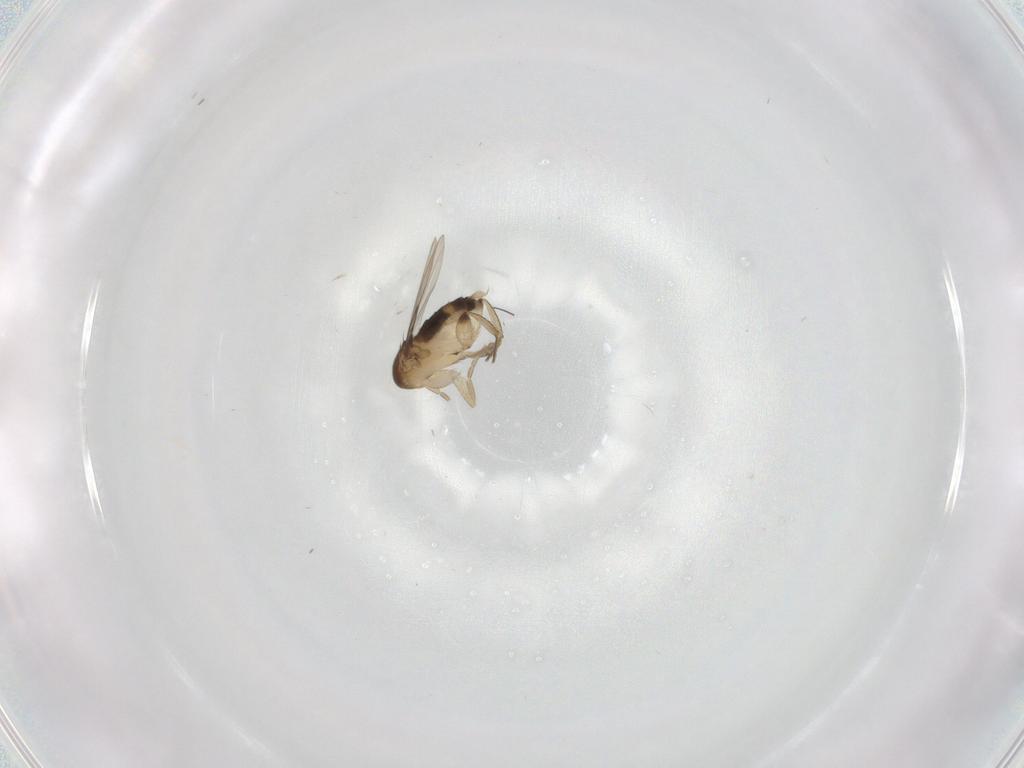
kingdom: Animalia
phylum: Arthropoda
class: Insecta
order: Diptera
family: Phoridae
